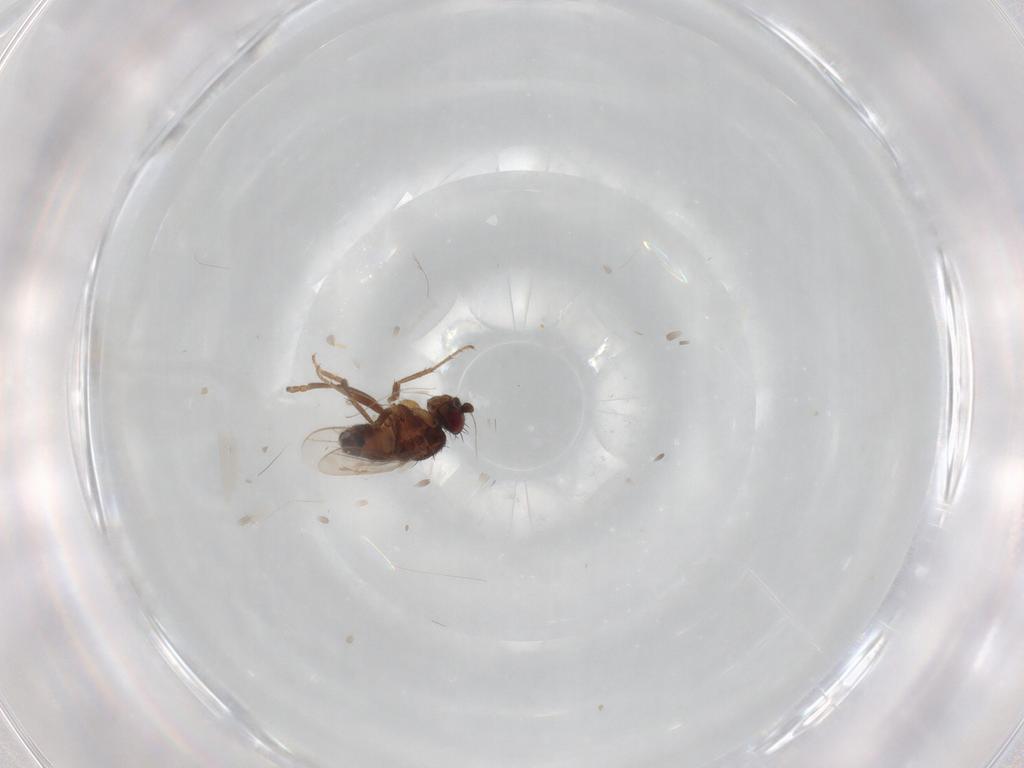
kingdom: Animalia
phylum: Arthropoda
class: Insecta
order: Diptera
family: Sphaeroceridae
